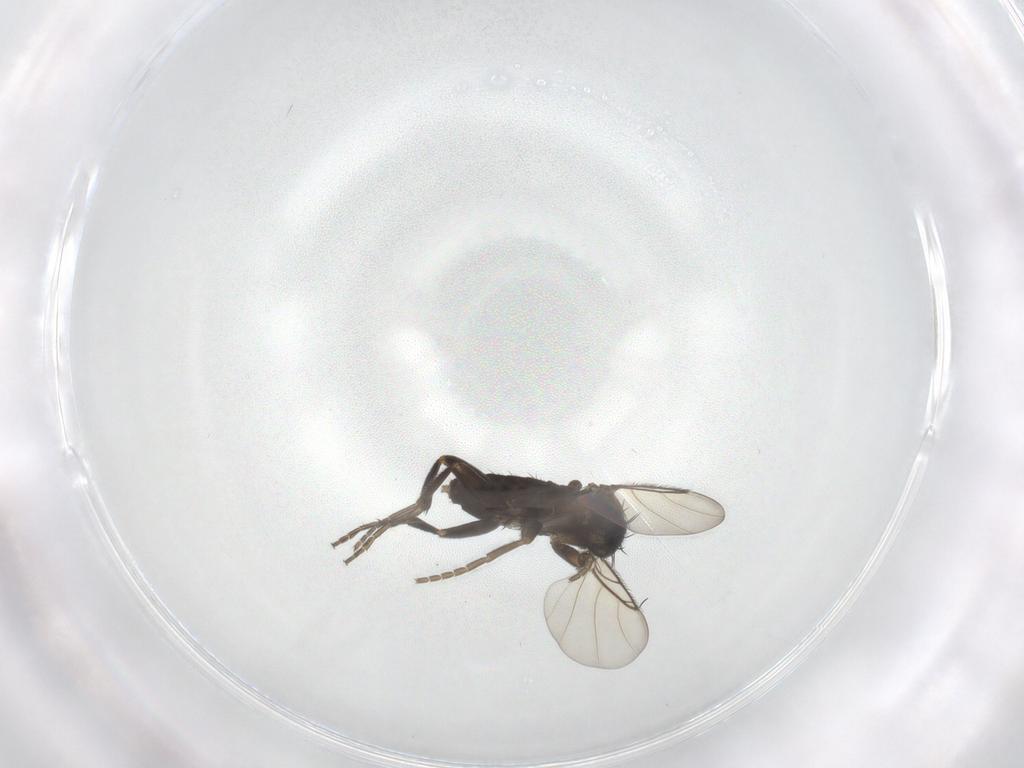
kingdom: Animalia
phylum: Arthropoda
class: Insecta
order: Diptera
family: Phoridae
